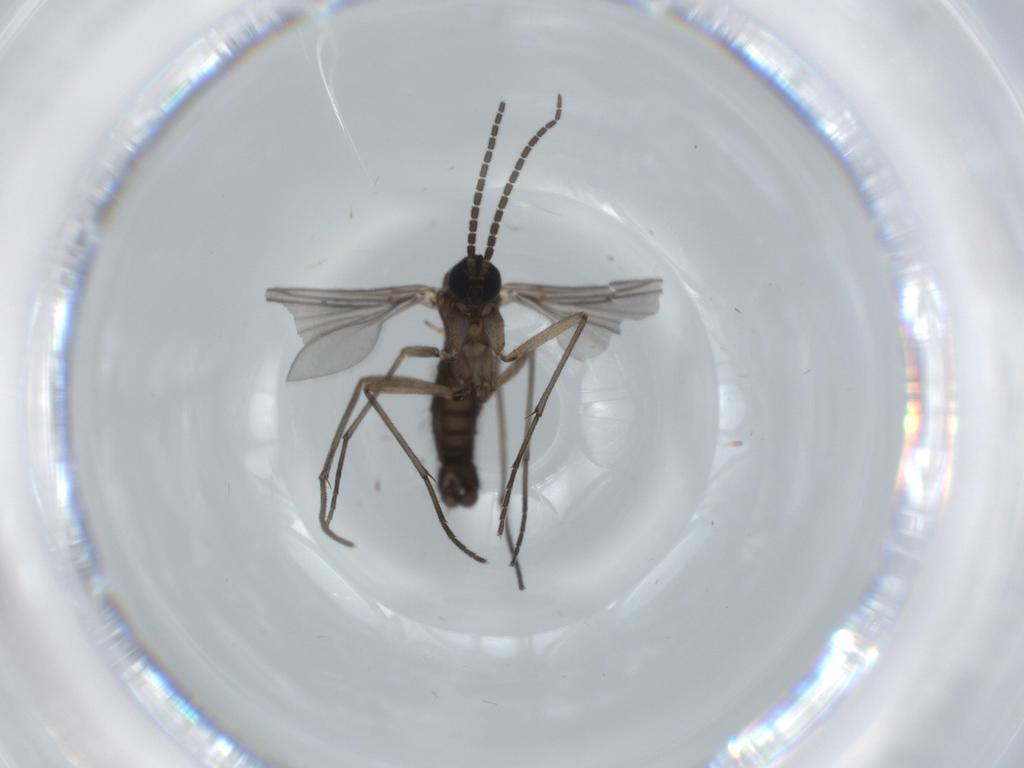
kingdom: Animalia
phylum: Arthropoda
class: Insecta
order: Diptera
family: Sciaridae
